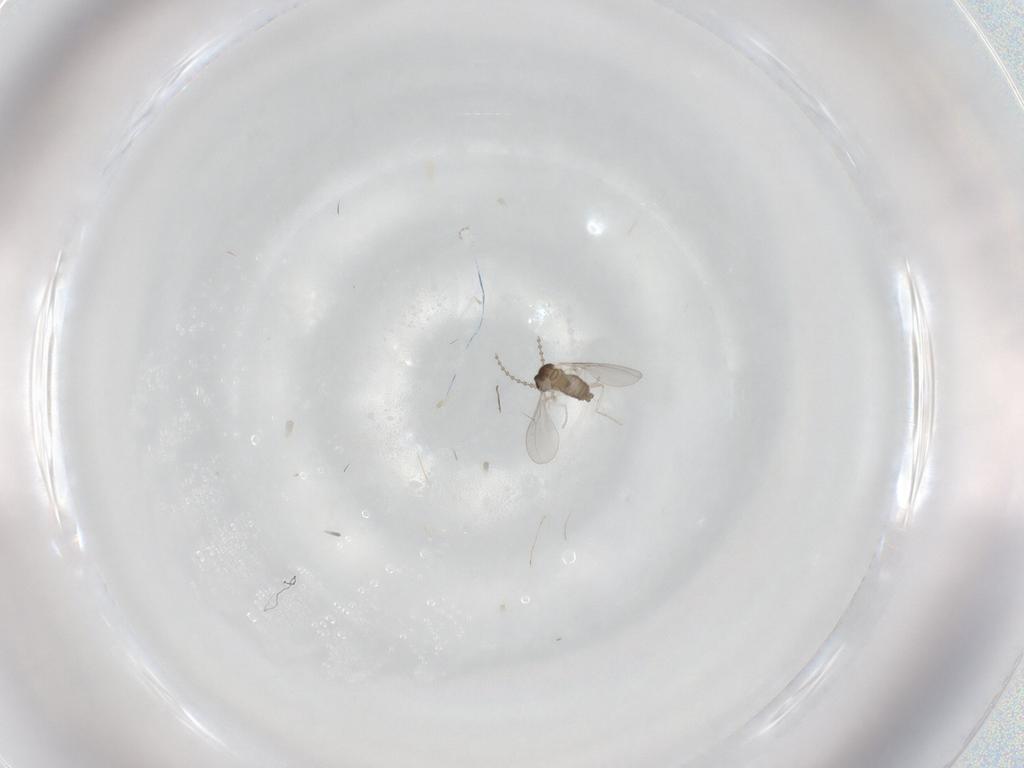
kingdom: Animalia
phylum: Arthropoda
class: Insecta
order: Diptera
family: Cecidomyiidae
